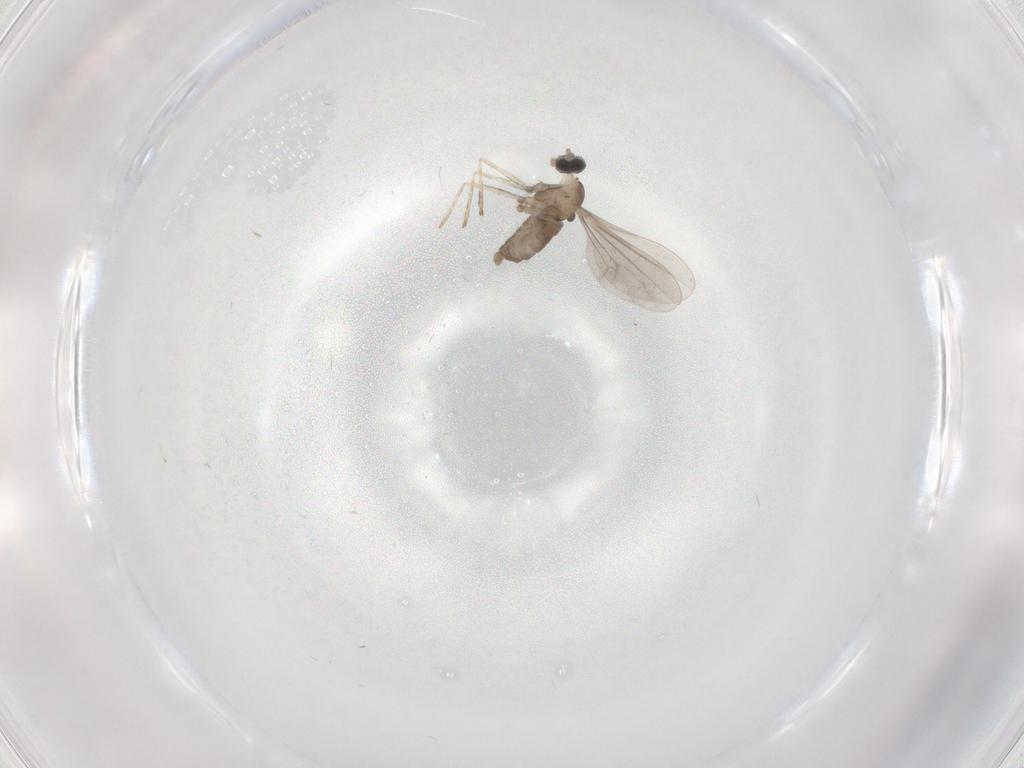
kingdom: Animalia
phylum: Arthropoda
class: Insecta
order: Diptera
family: Cecidomyiidae
